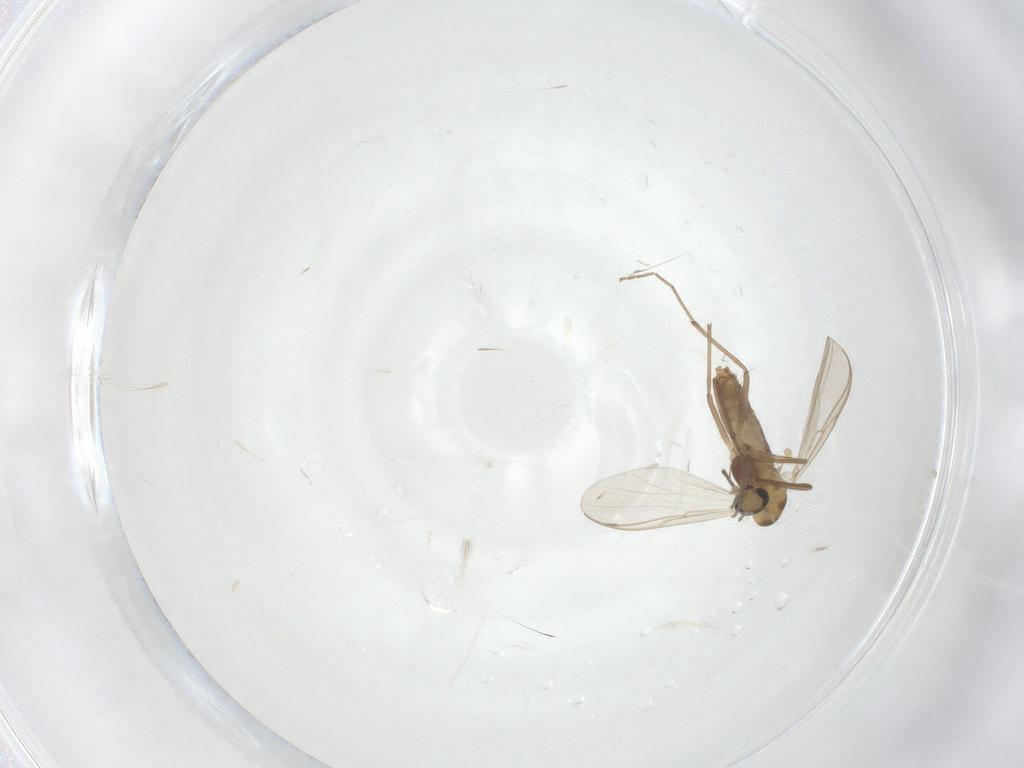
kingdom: Animalia
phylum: Arthropoda
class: Insecta
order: Diptera
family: Chironomidae
